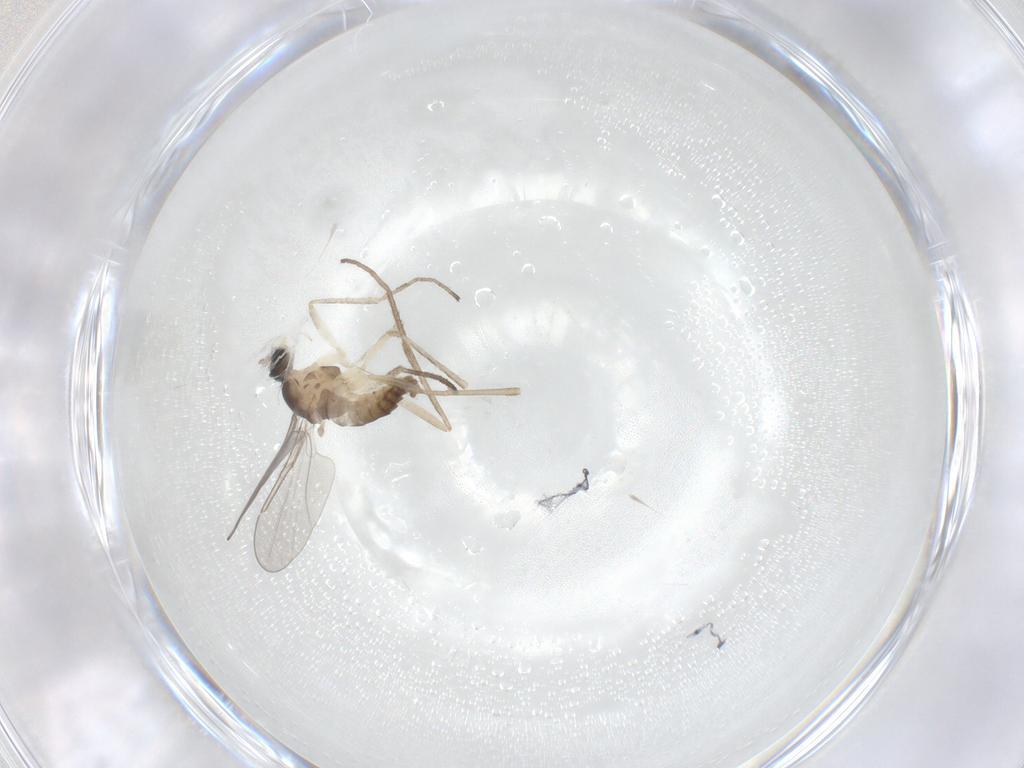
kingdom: Animalia
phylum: Arthropoda
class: Insecta
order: Diptera
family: Cecidomyiidae
